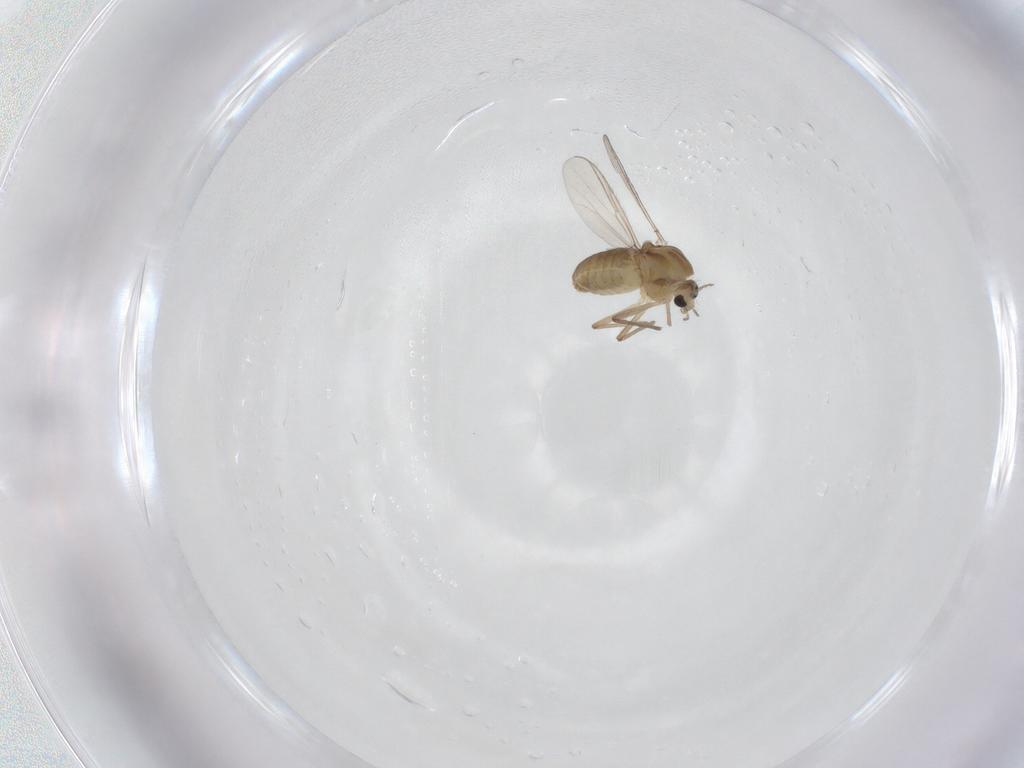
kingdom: Animalia
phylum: Arthropoda
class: Insecta
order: Diptera
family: Chironomidae
